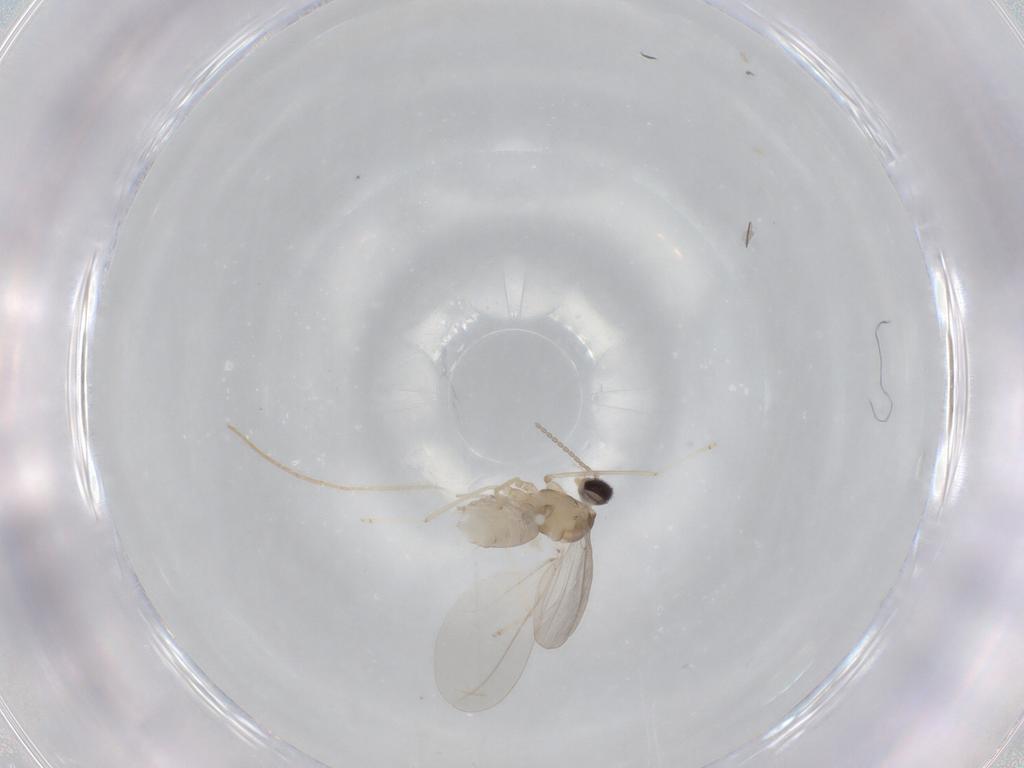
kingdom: Animalia
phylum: Arthropoda
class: Insecta
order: Diptera
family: Cecidomyiidae
